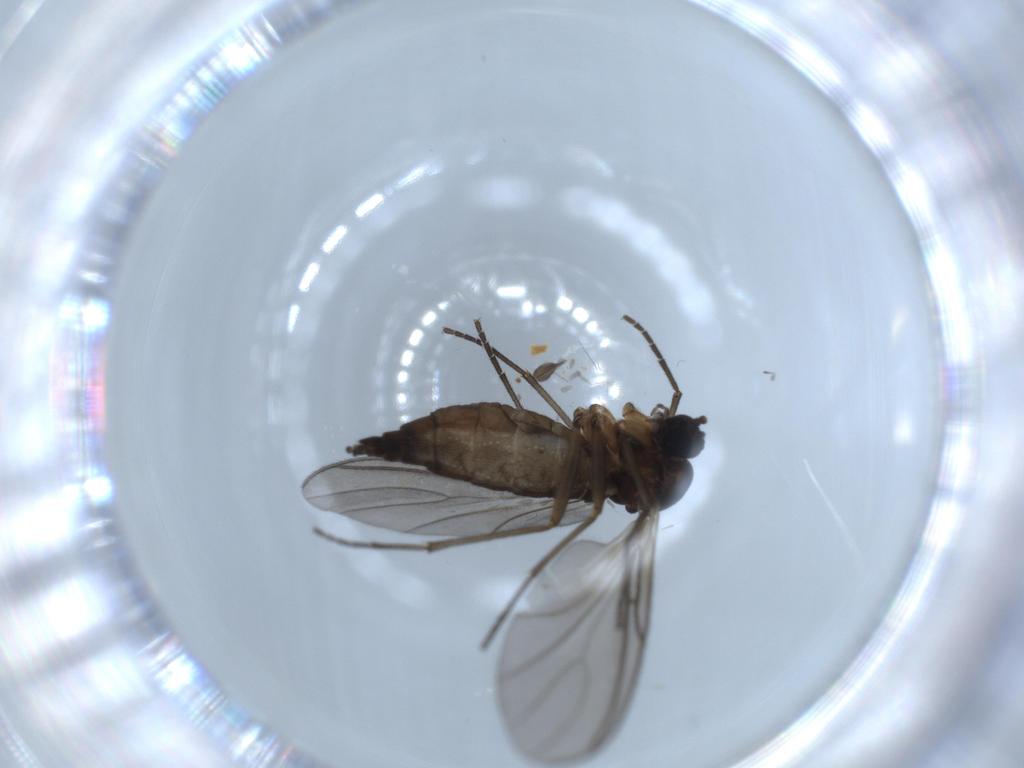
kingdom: Animalia
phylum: Arthropoda
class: Insecta
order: Diptera
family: Sciaridae
